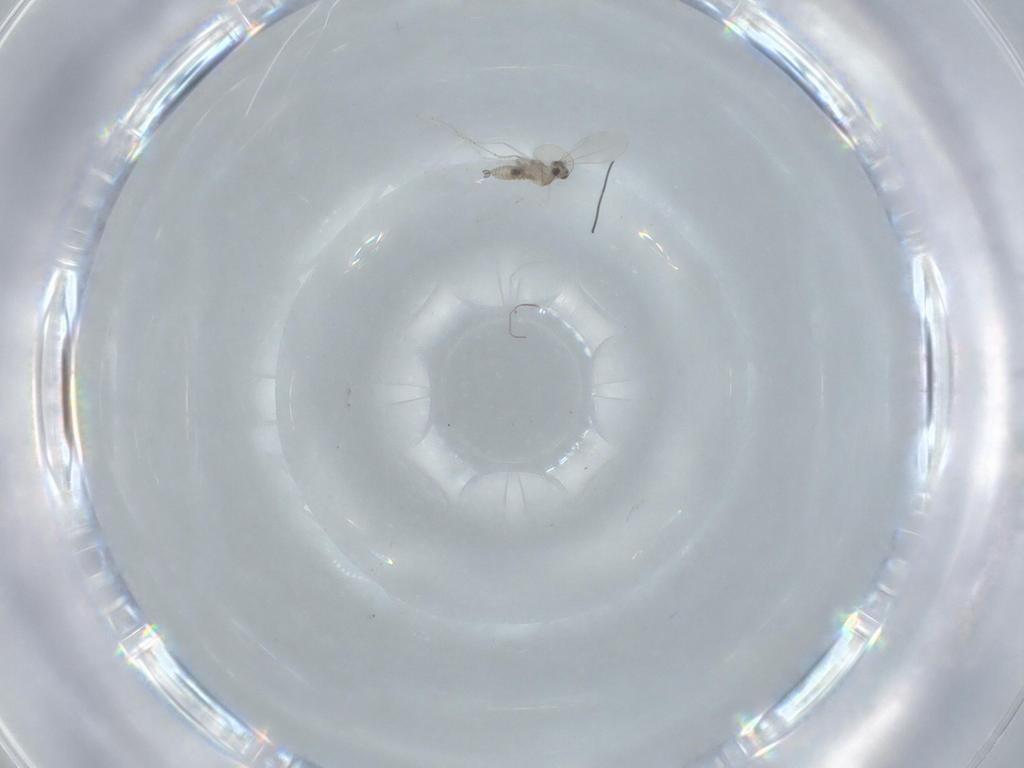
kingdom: Animalia
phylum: Arthropoda
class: Insecta
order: Diptera
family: Cecidomyiidae
